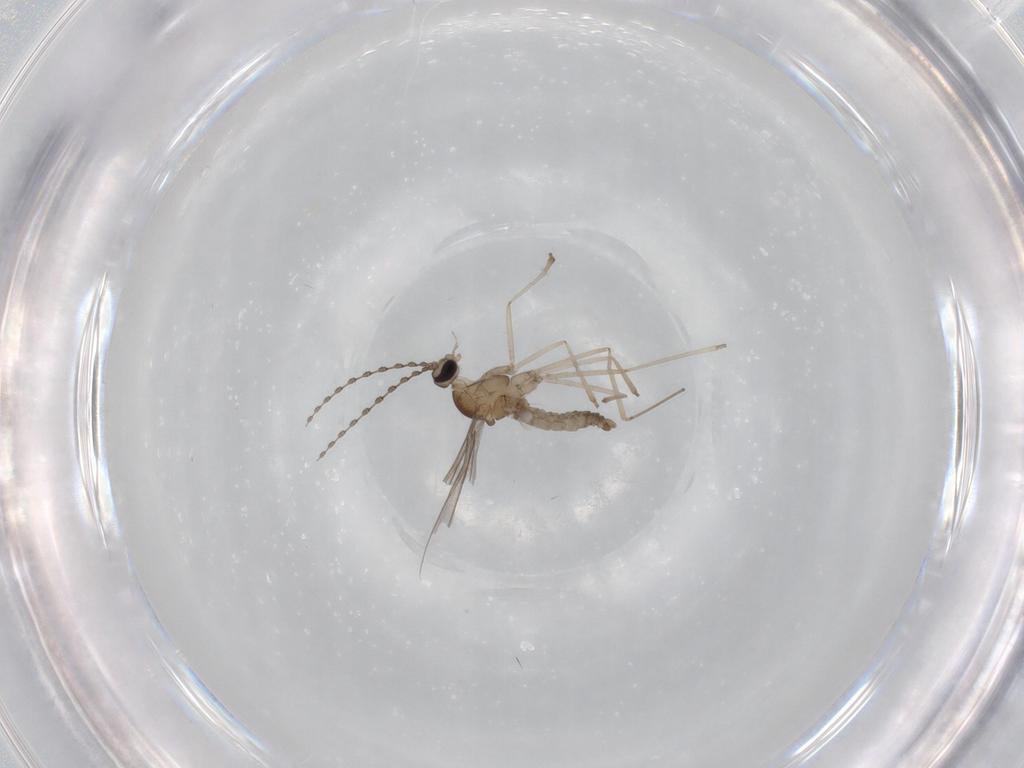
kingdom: Animalia
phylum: Arthropoda
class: Insecta
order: Diptera
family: Cecidomyiidae
